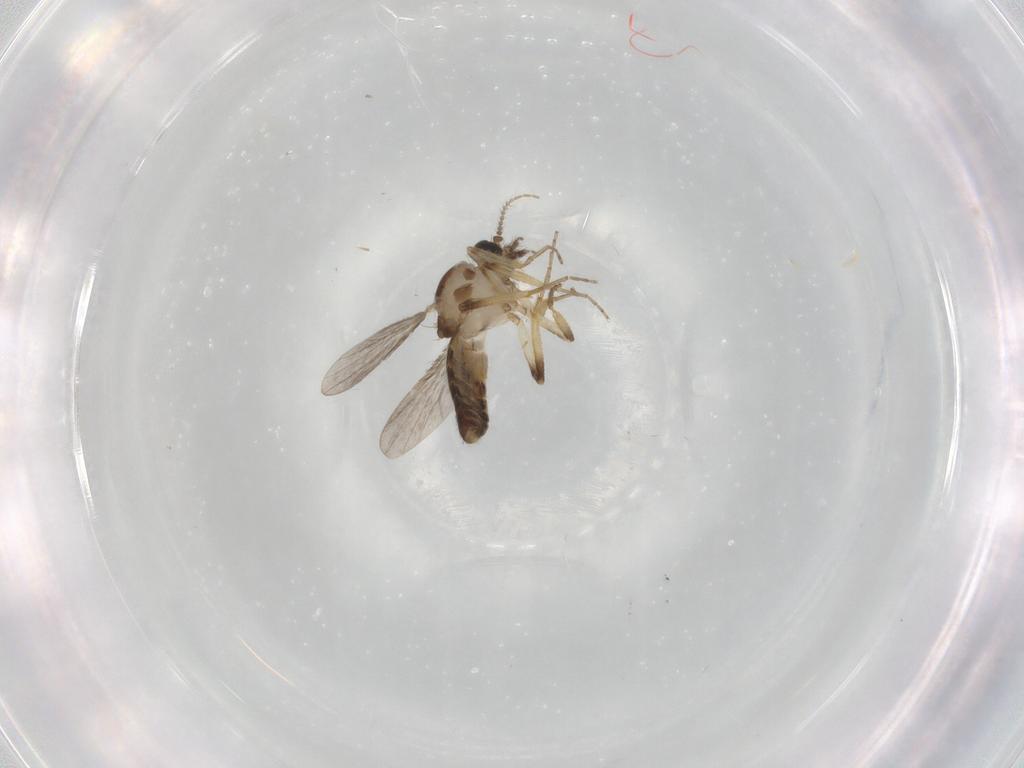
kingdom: Animalia
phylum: Arthropoda
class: Insecta
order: Diptera
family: Ceratopogonidae
